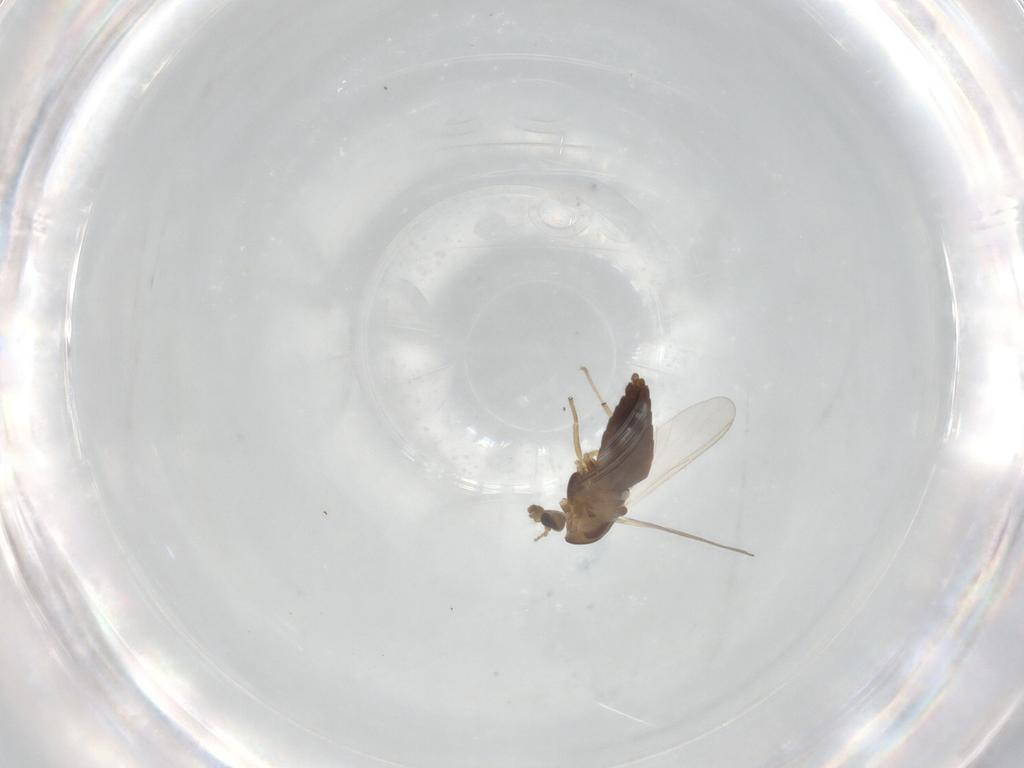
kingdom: Animalia
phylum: Arthropoda
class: Insecta
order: Diptera
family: Chironomidae
